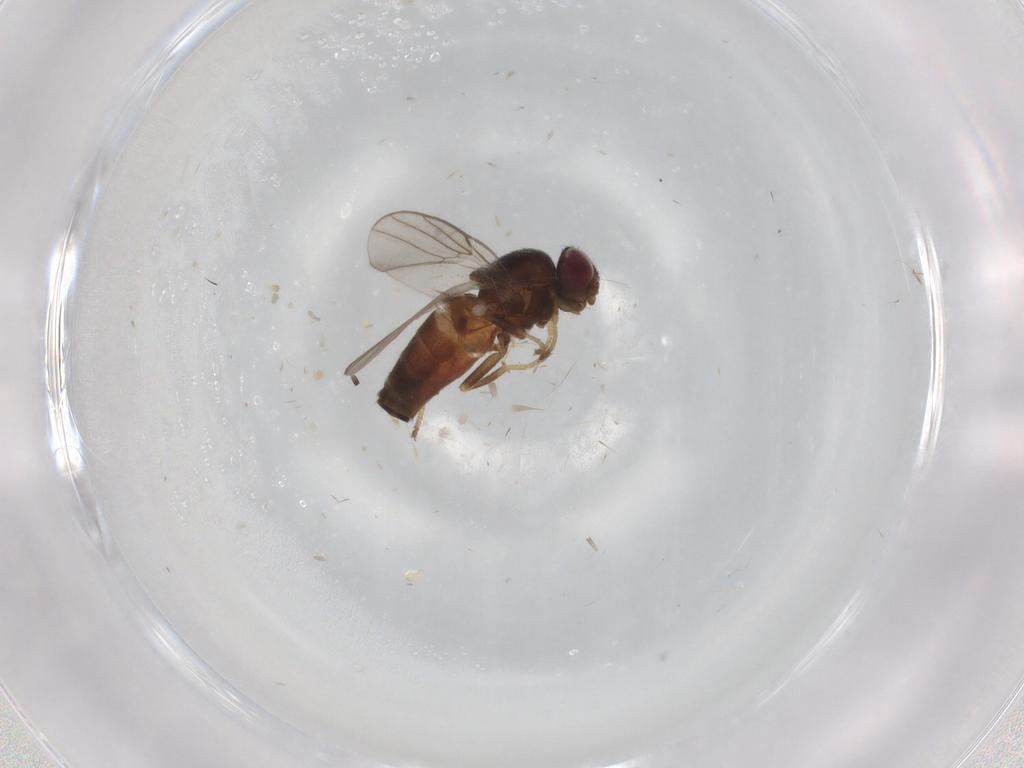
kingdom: Animalia
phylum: Arthropoda
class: Insecta
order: Diptera
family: Chloropidae
